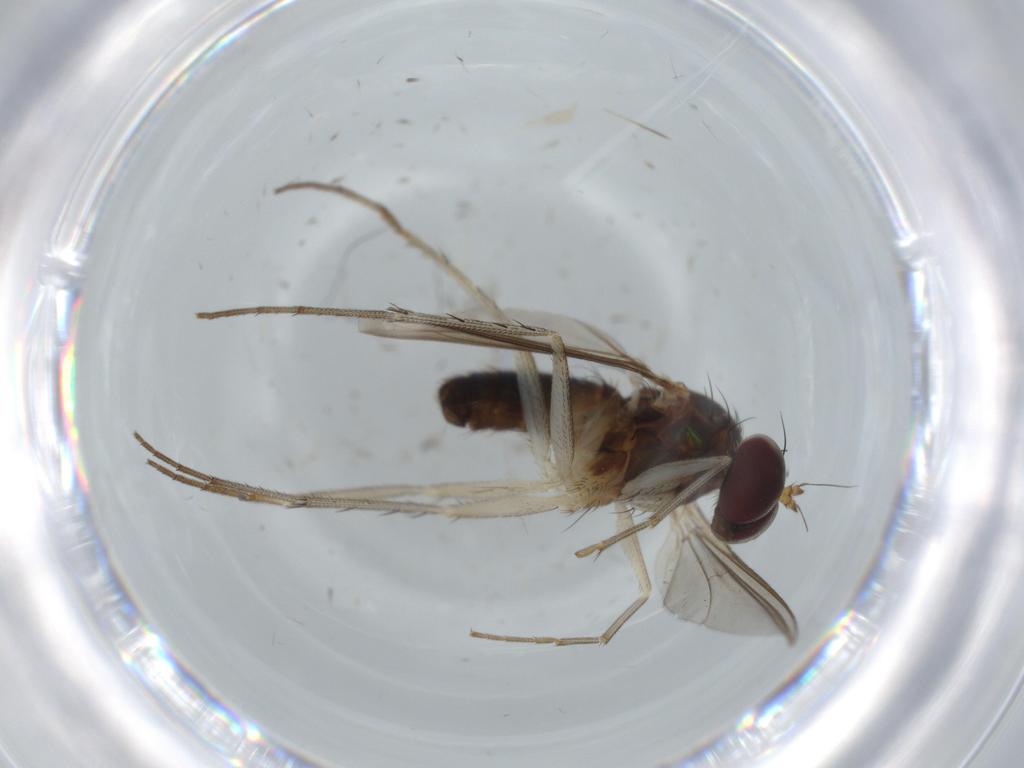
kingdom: Animalia
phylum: Arthropoda
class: Insecta
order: Diptera
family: Dolichopodidae
